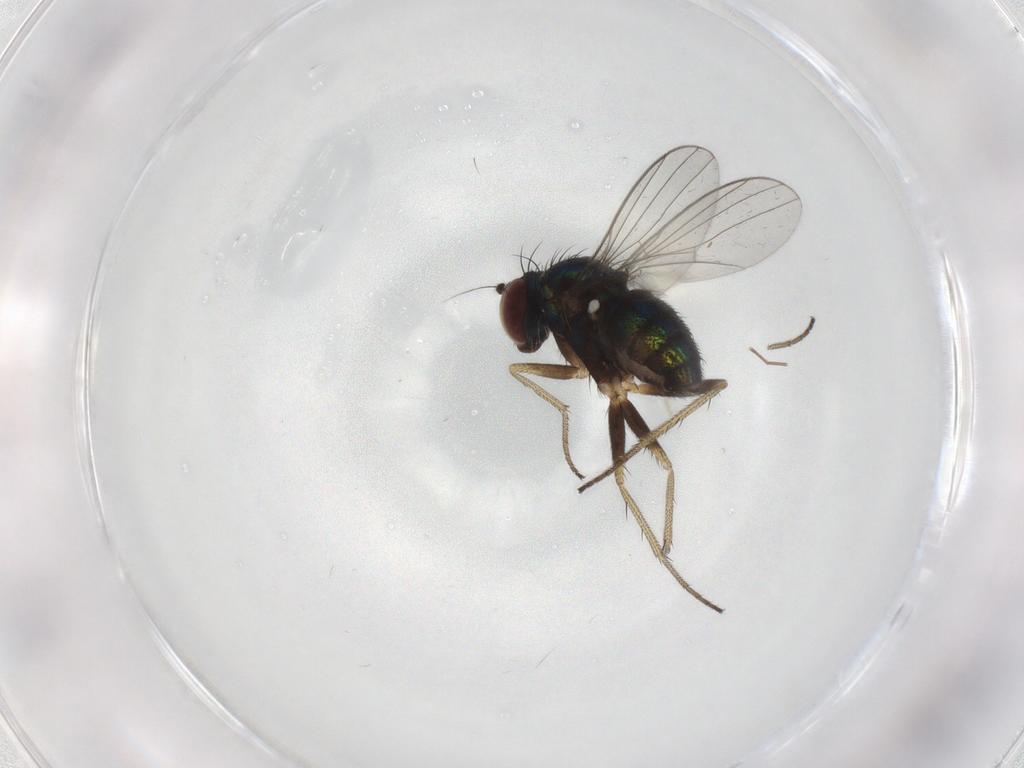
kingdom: Animalia
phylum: Arthropoda
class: Insecta
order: Diptera
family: Dolichopodidae
